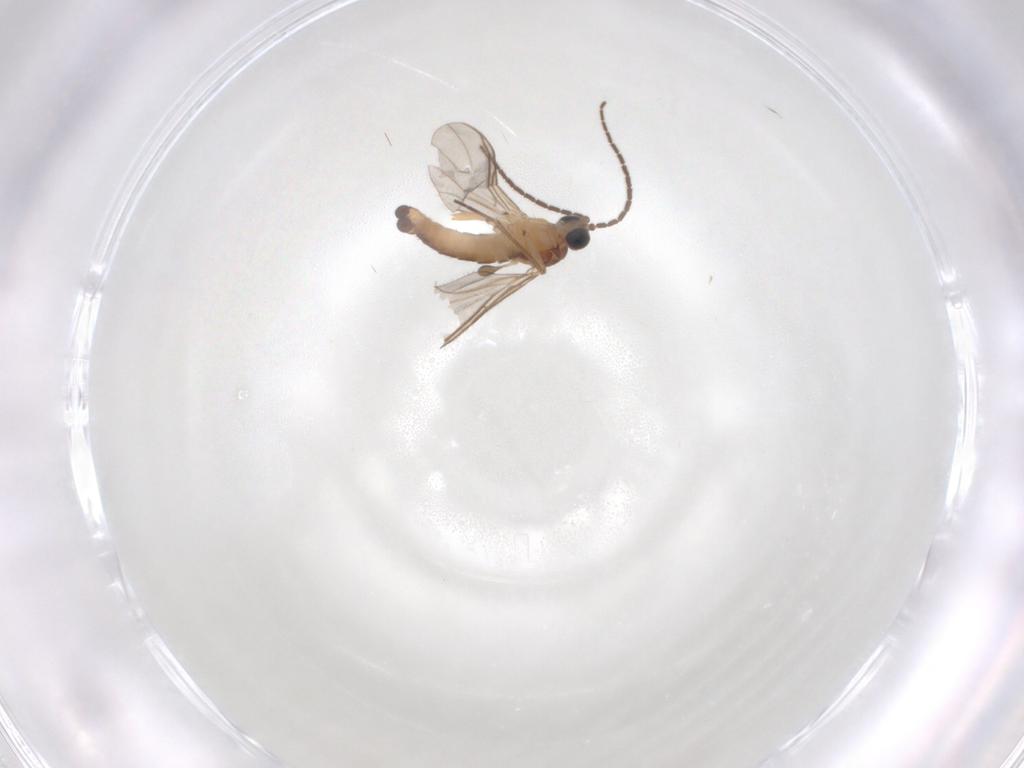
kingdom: Animalia
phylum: Arthropoda
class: Insecta
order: Diptera
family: Sciaridae
